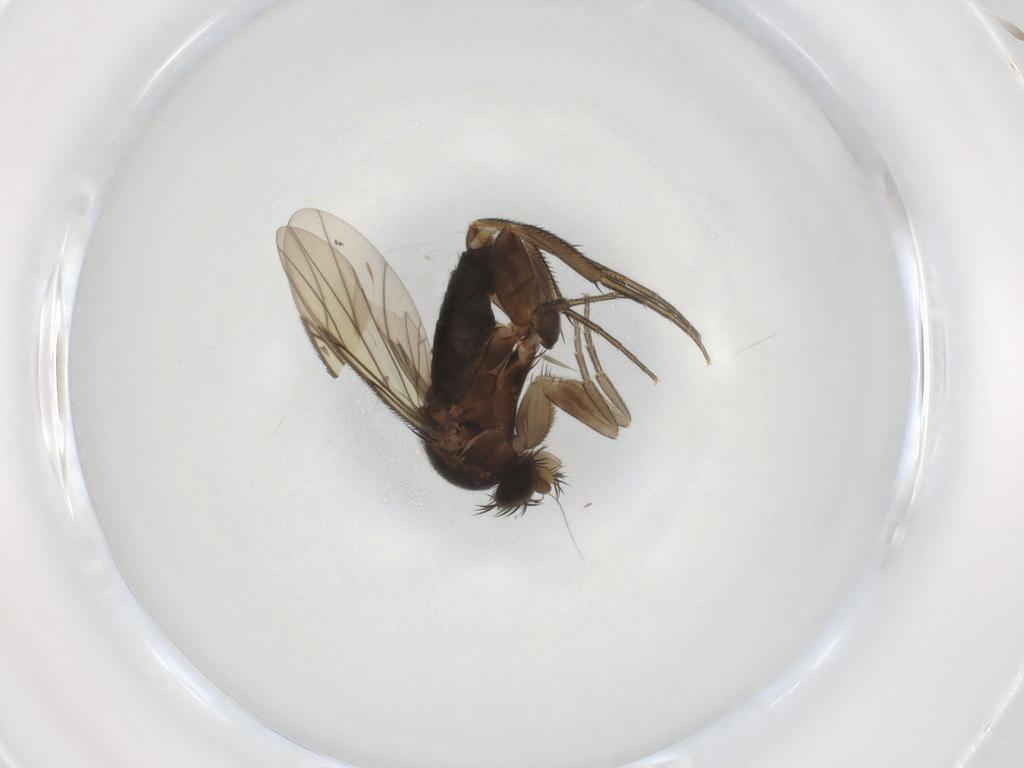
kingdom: Animalia
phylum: Arthropoda
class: Insecta
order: Diptera
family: Phoridae
